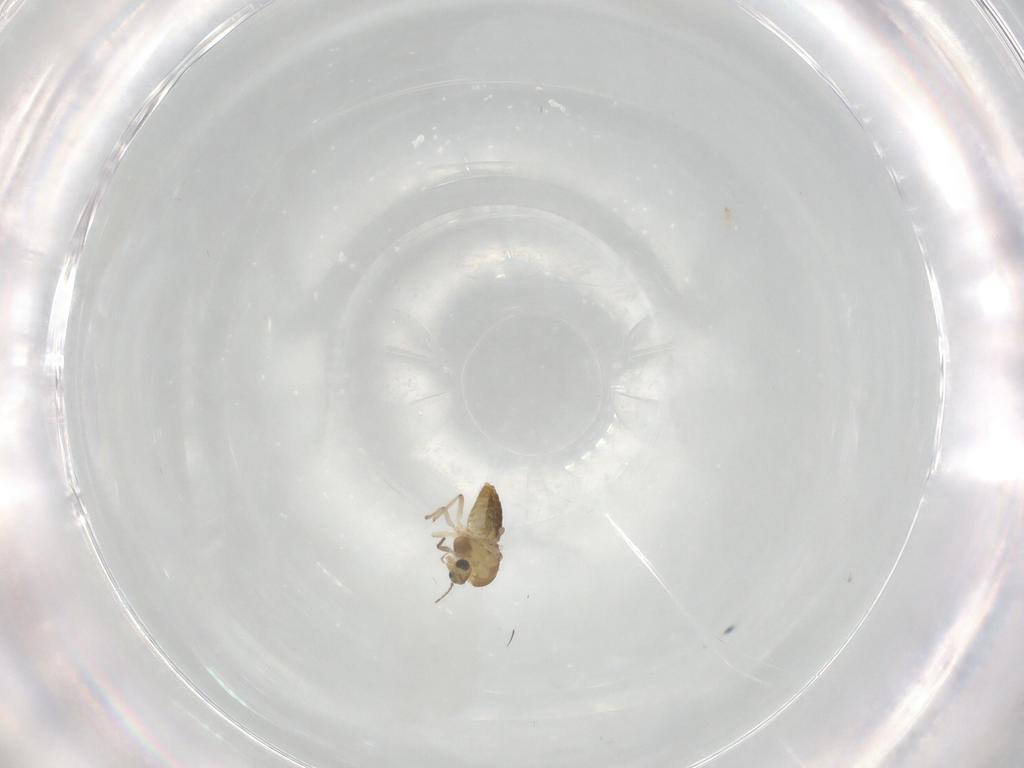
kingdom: Animalia
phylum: Arthropoda
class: Insecta
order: Diptera
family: Chironomidae
